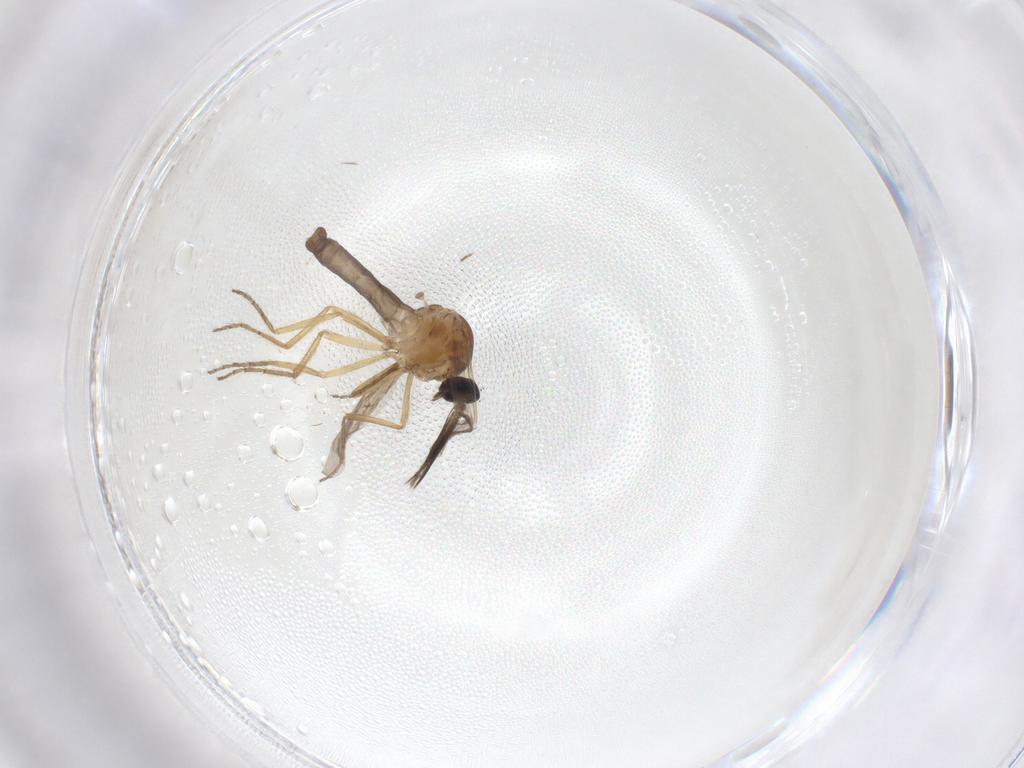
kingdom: Animalia
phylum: Arthropoda
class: Insecta
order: Diptera
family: Ceratopogonidae
